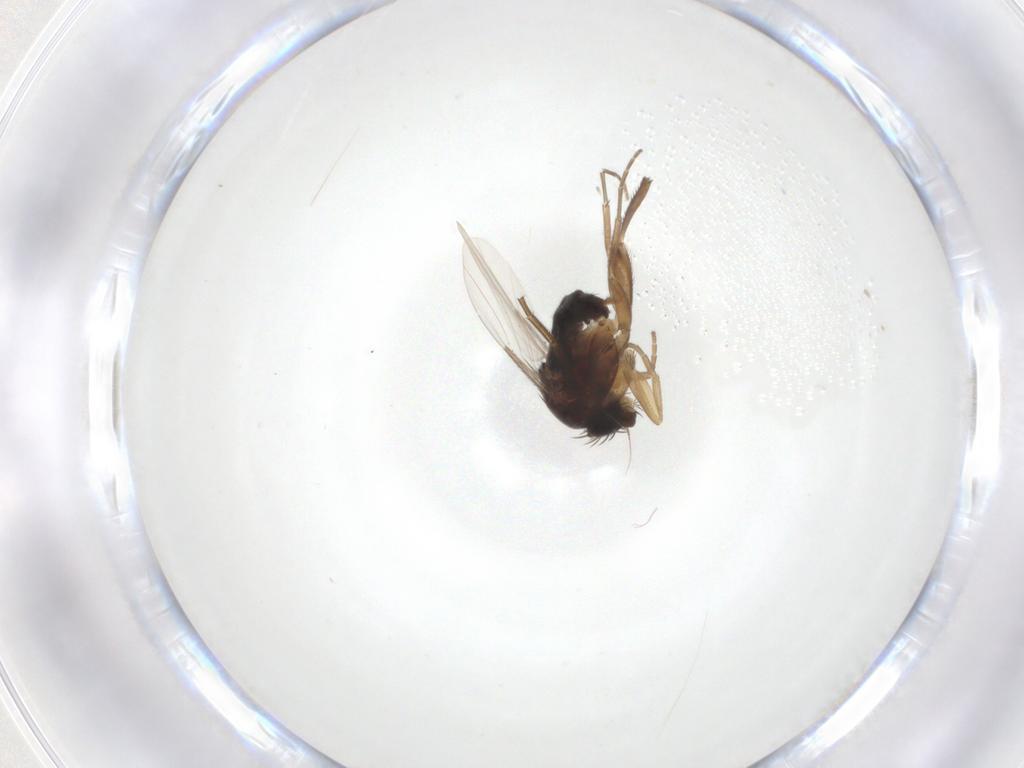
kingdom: Animalia
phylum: Arthropoda
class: Insecta
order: Diptera
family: Phoridae
